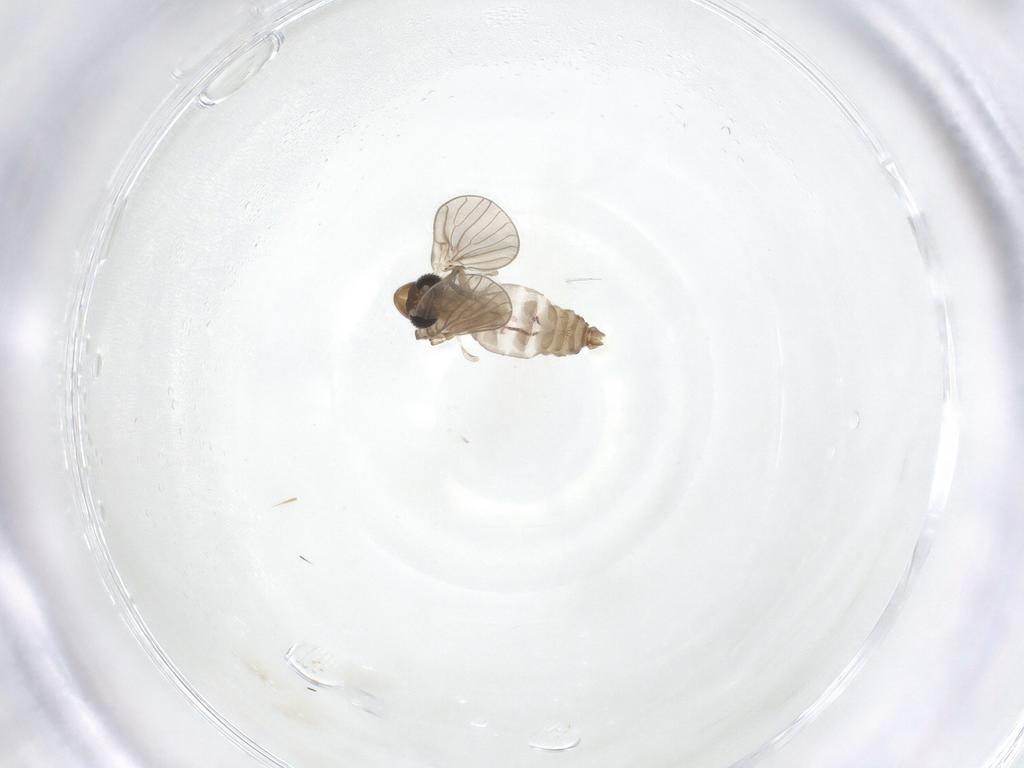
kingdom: Animalia
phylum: Arthropoda
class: Insecta
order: Diptera
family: Psychodidae
